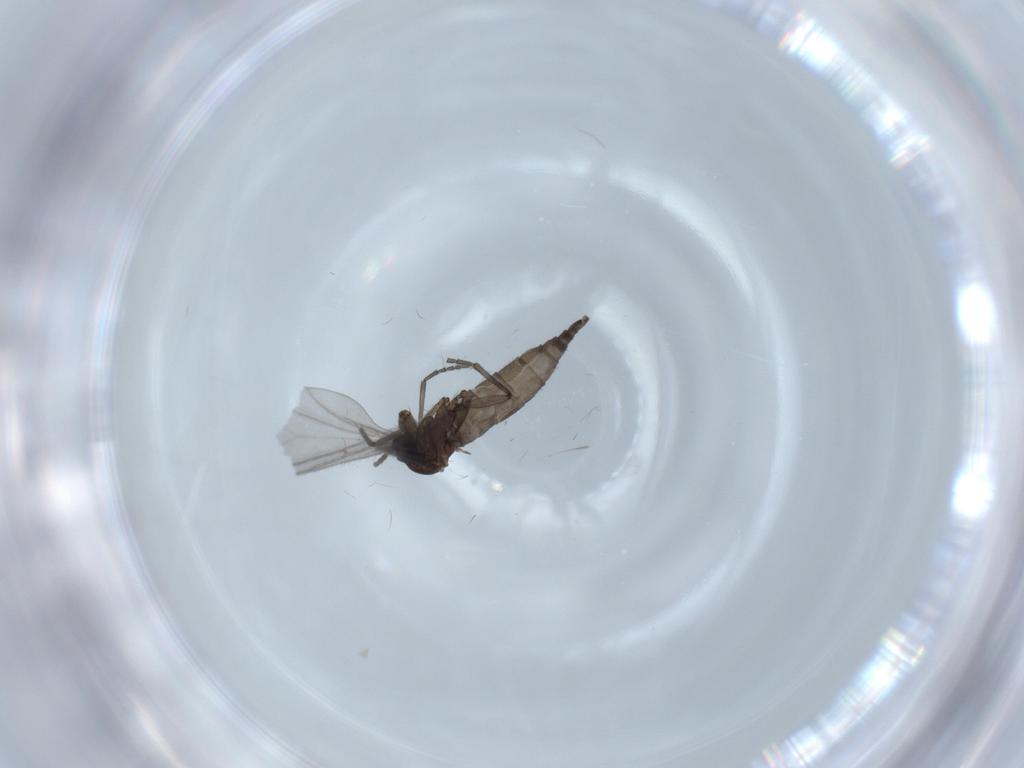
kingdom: Animalia
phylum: Arthropoda
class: Insecta
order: Diptera
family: Sciaridae
